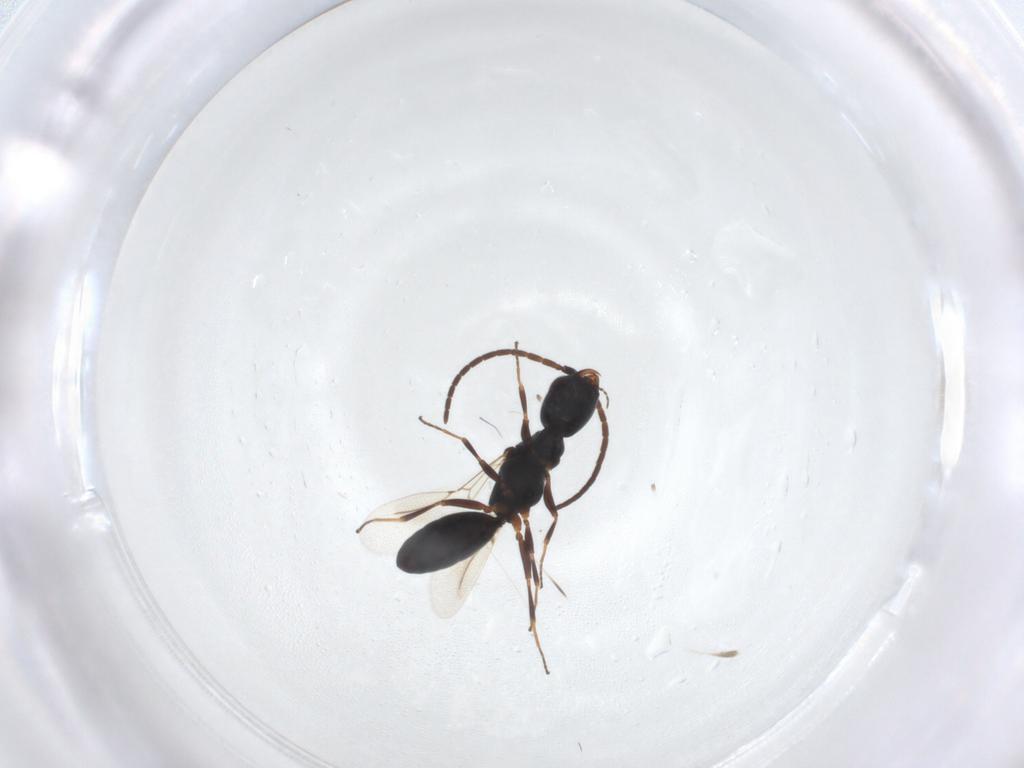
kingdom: Animalia
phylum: Arthropoda
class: Insecta
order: Hymenoptera
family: Bethylidae
